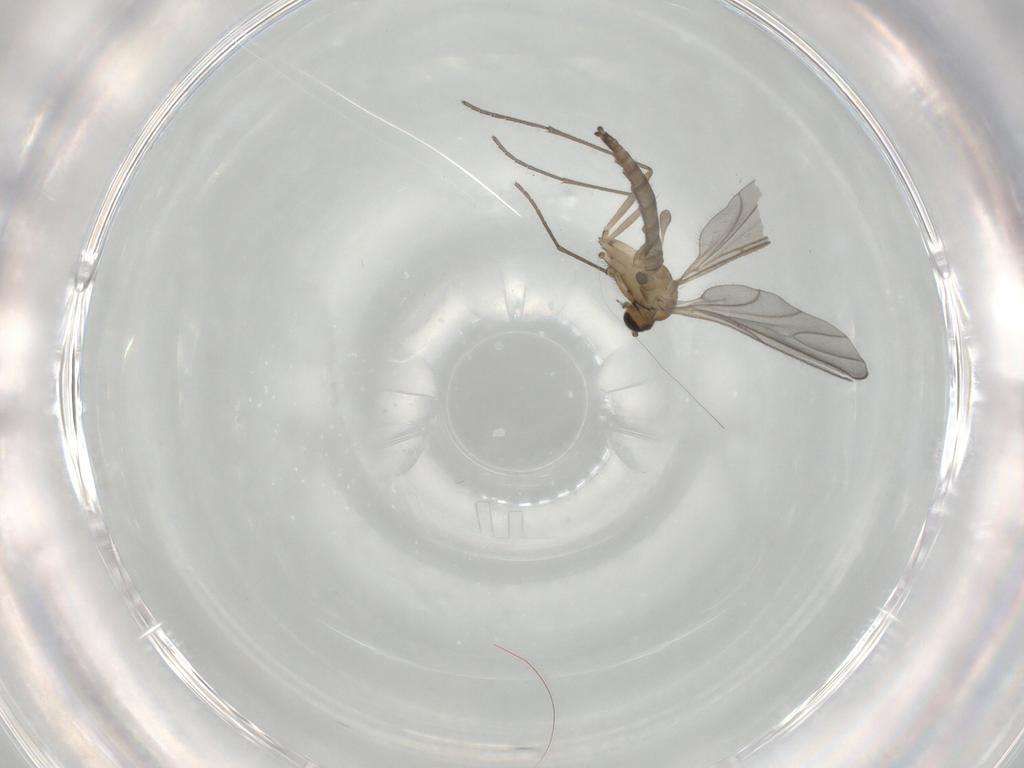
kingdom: Animalia
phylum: Arthropoda
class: Insecta
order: Diptera
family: Sciaridae
